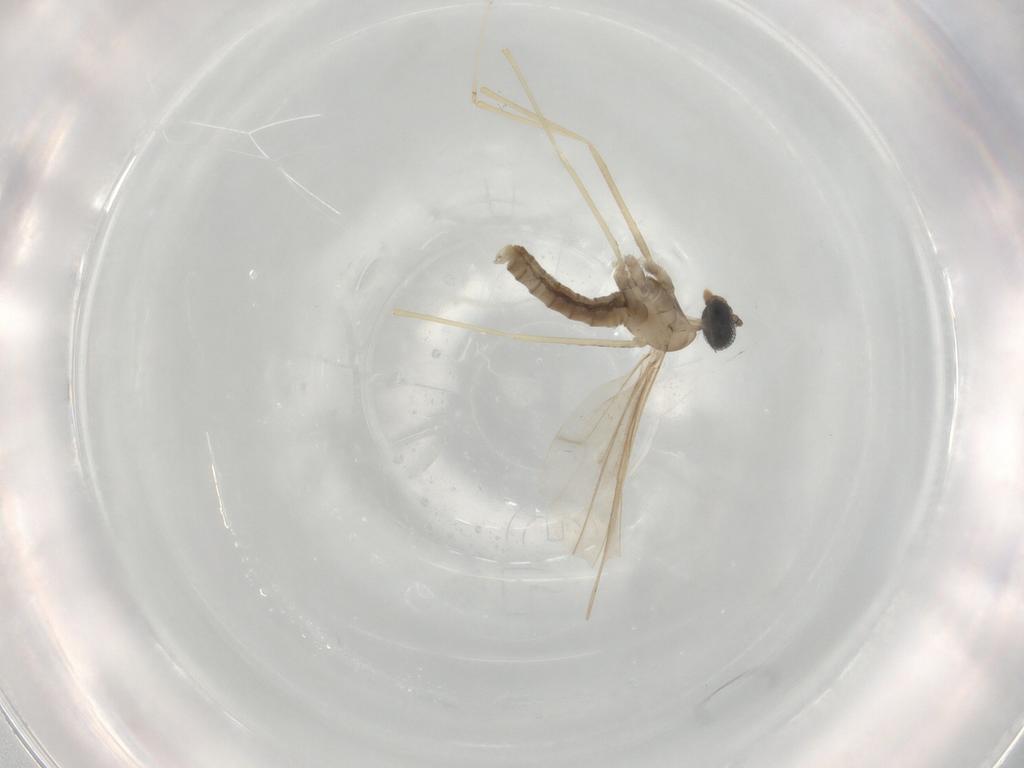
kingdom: Animalia
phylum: Arthropoda
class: Insecta
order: Diptera
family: Cecidomyiidae
